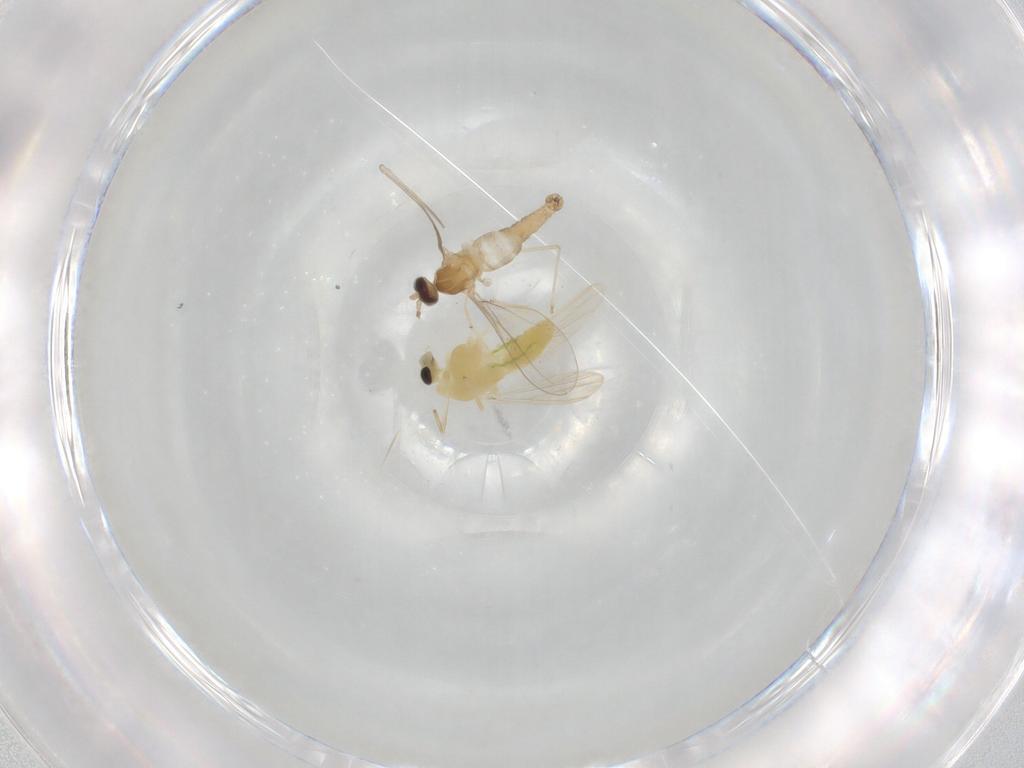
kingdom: Animalia
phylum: Arthropoda
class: Insecta
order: Diptera
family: Cecidomyiidae
